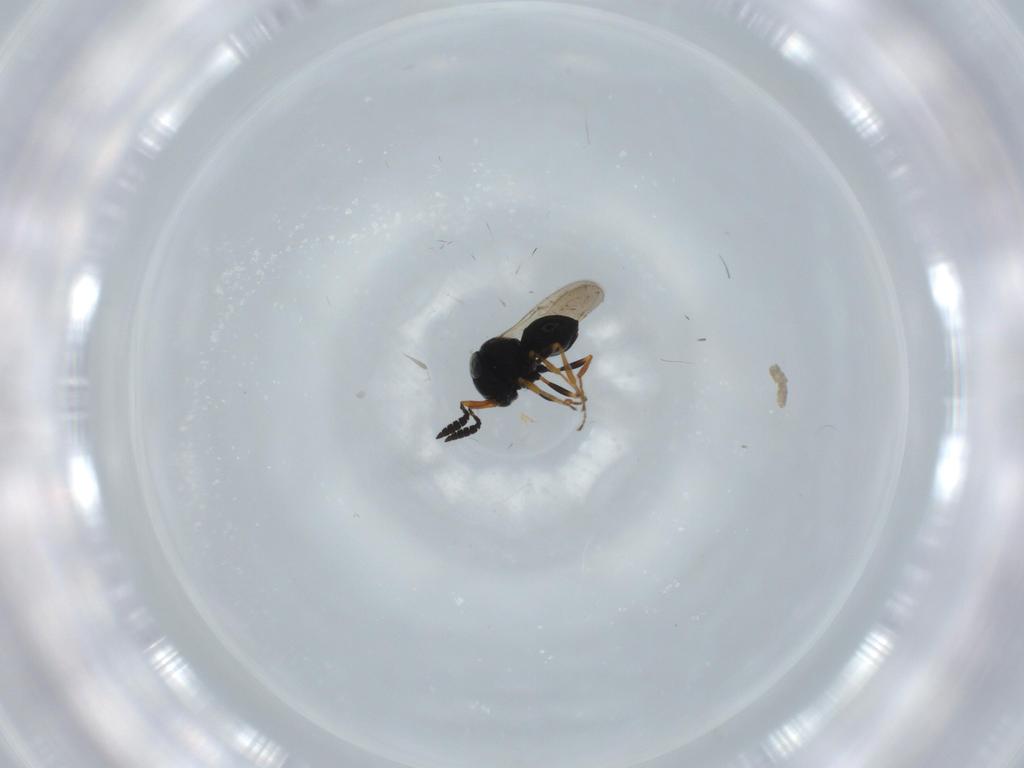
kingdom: Animalia
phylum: Arthropoda
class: Insecta
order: Hymenoptera
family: Scelionidae
